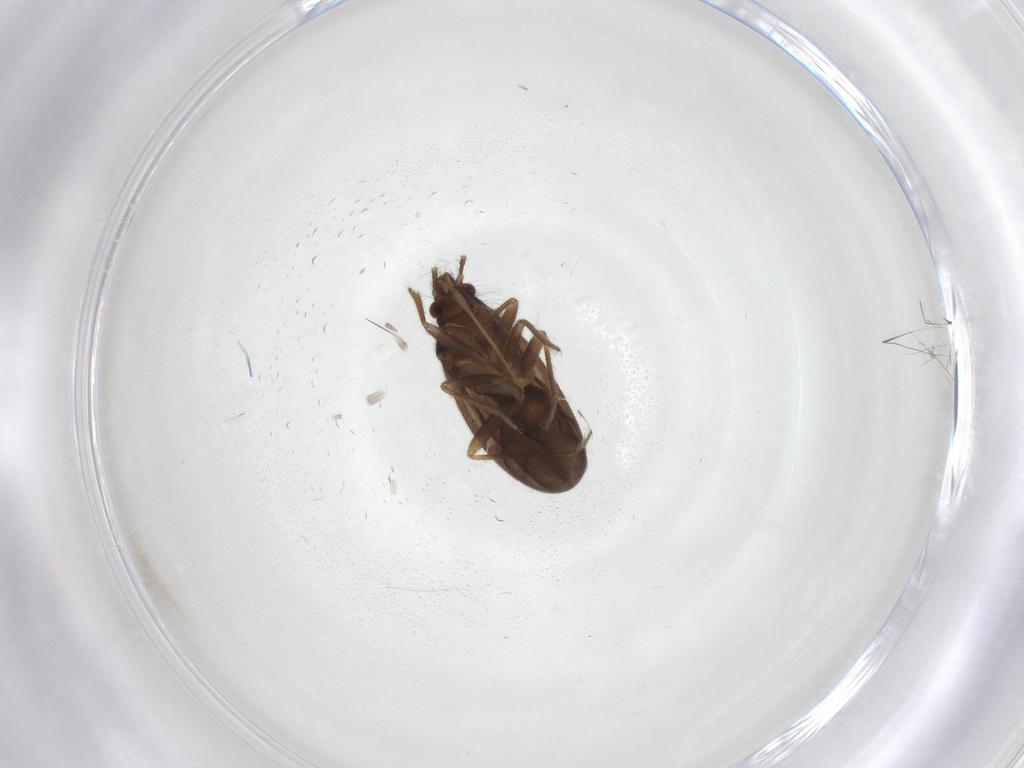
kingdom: Animalia
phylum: Arthropoda
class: Insecta
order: Hemiptera
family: Ceratocombidae
